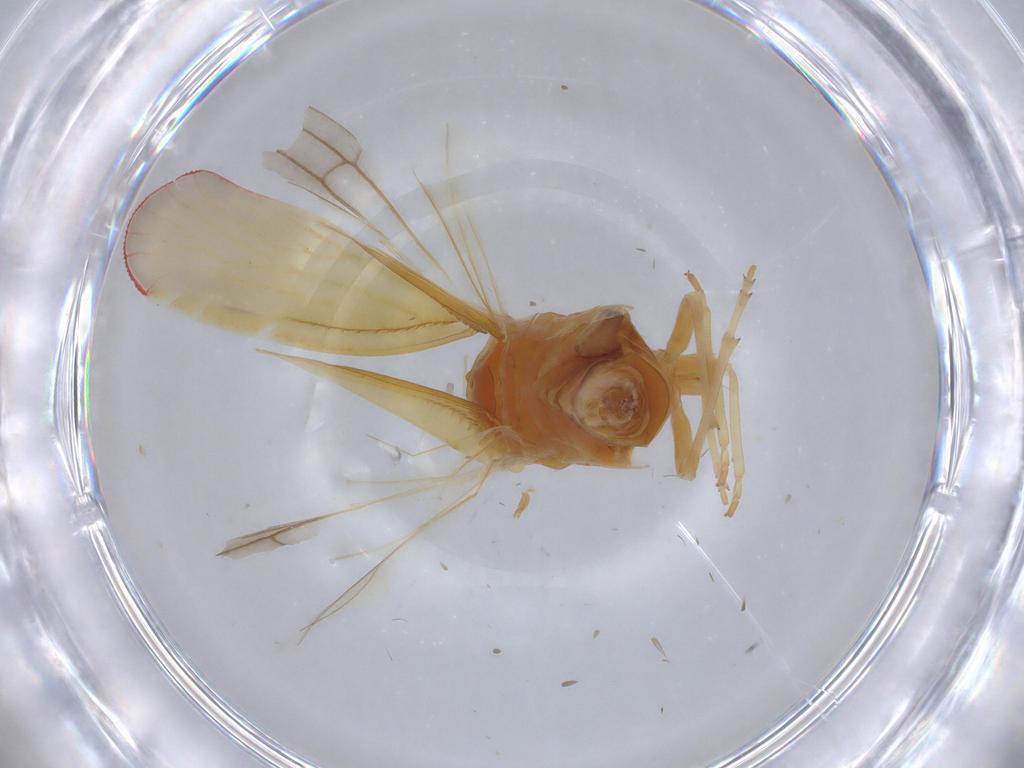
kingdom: Animalia
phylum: Arthropoda
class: Insecta
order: Hemiptera
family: Derbidae
